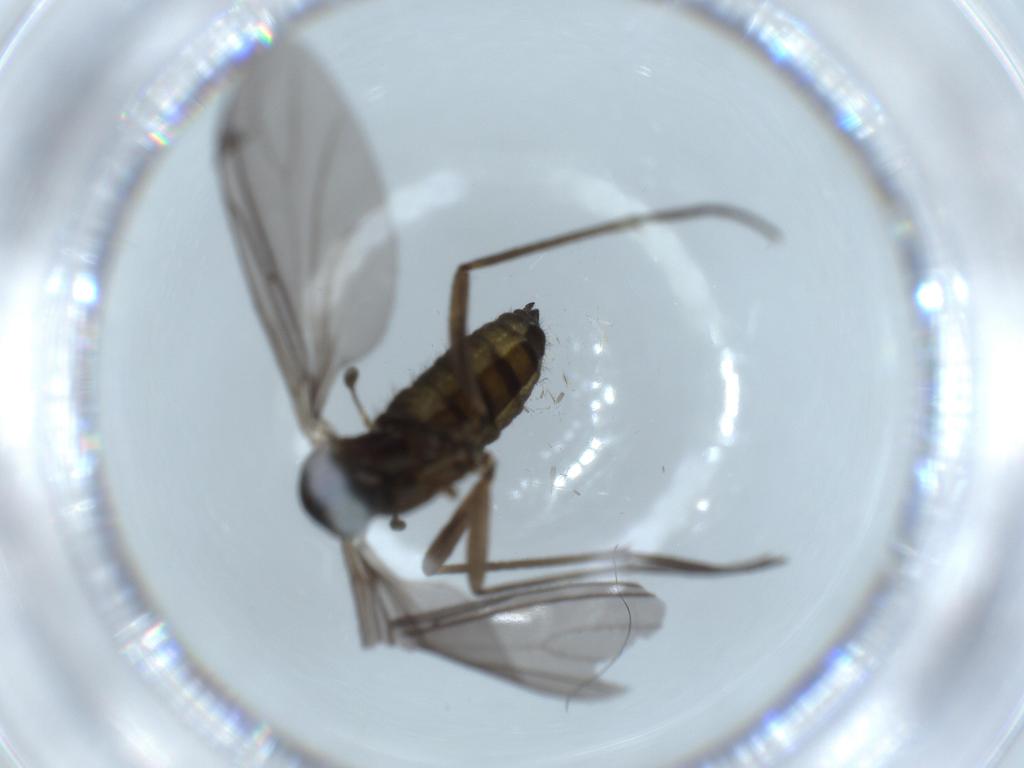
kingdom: Animalia
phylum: Arthropoda
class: Insecta
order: Diptera
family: Sciaridae
